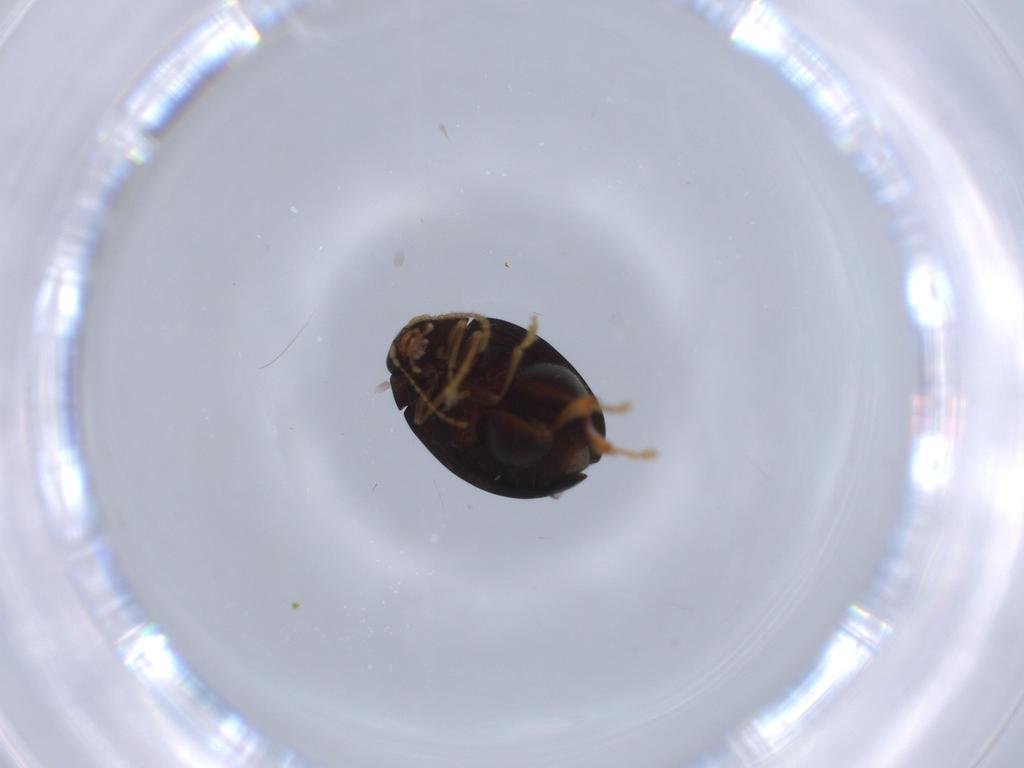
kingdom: Animalia
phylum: Arthropoda
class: Insecta
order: Coleoptera
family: Chrysomelidae
